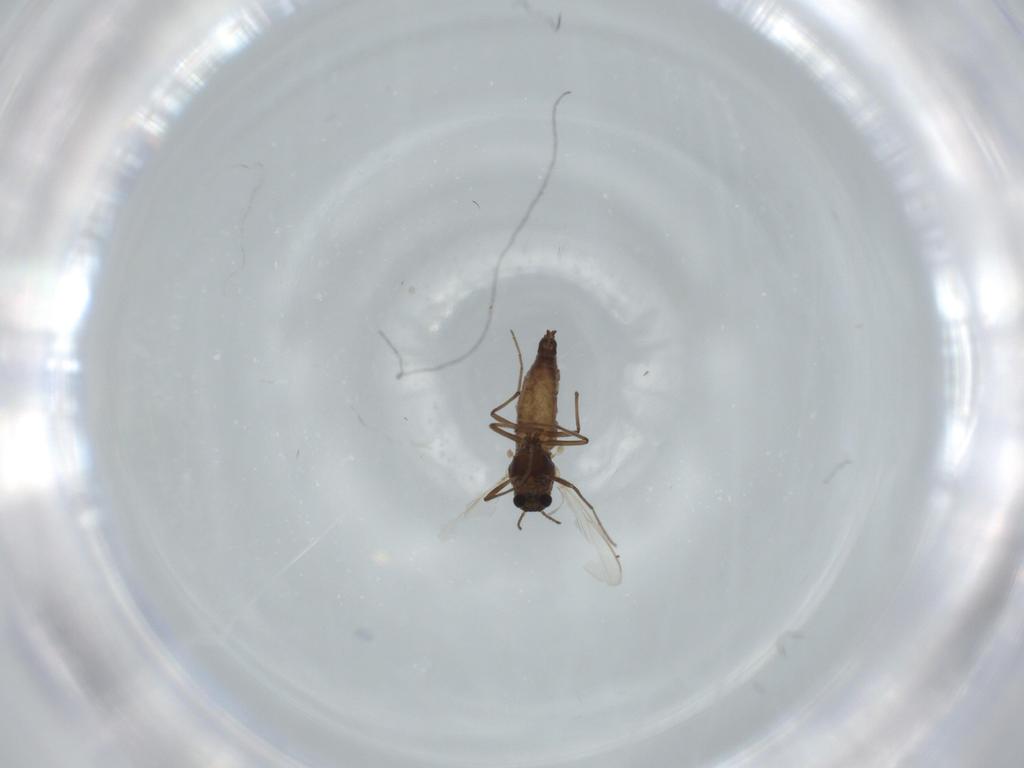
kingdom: Animalia
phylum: Arthropoda
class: Insecta
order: Diptera
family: Chironomidae
